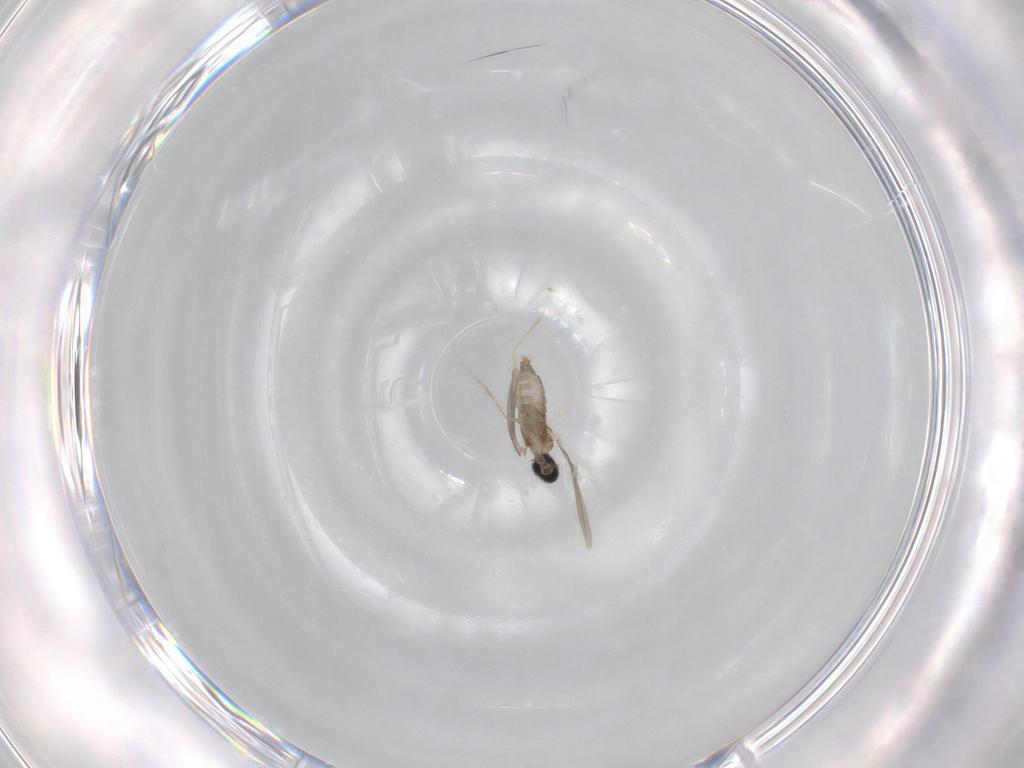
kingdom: Animalia
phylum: Arthropoda
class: Insecta
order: Diptera
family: Cecidomyiidae
